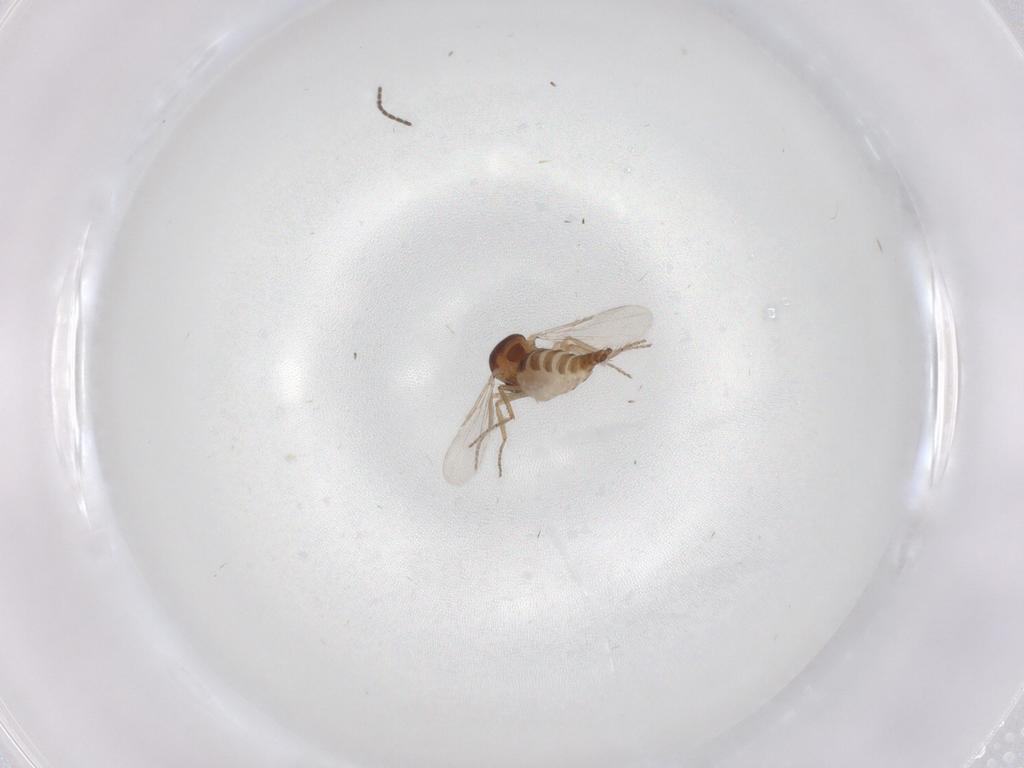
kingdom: Animalia
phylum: Arthropoda
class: Insecta
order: Diptera
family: Ceratopogonidae
